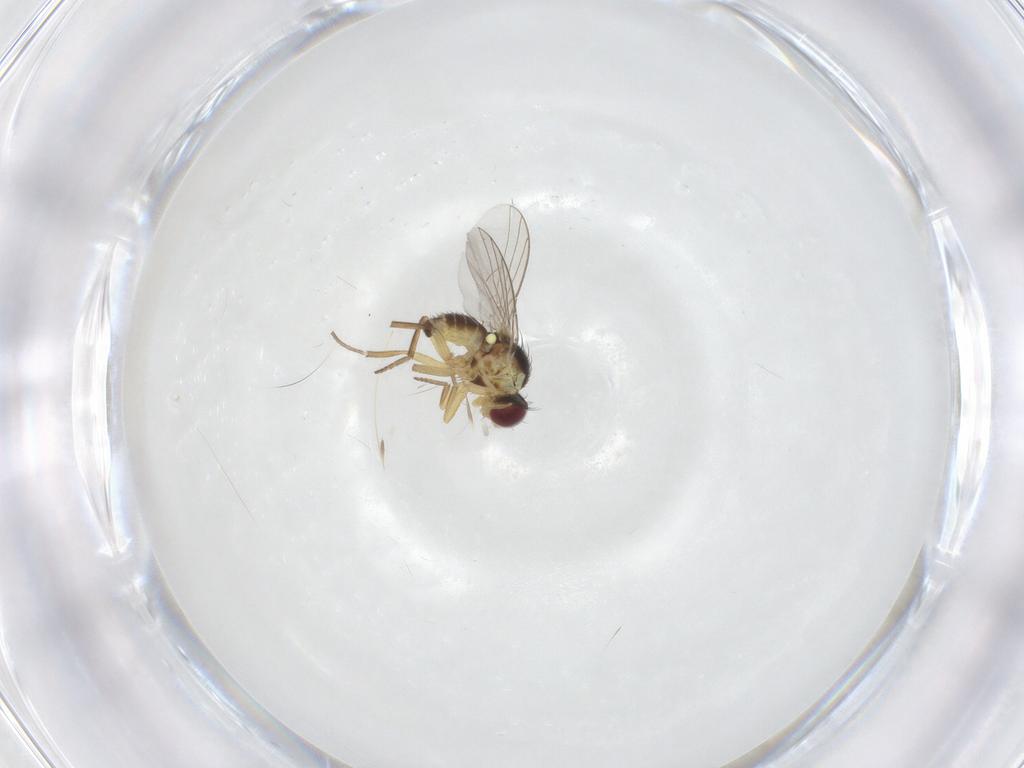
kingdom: Animalia
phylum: Arthropoda
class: Insecta
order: Diptera
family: Agromyzidae
